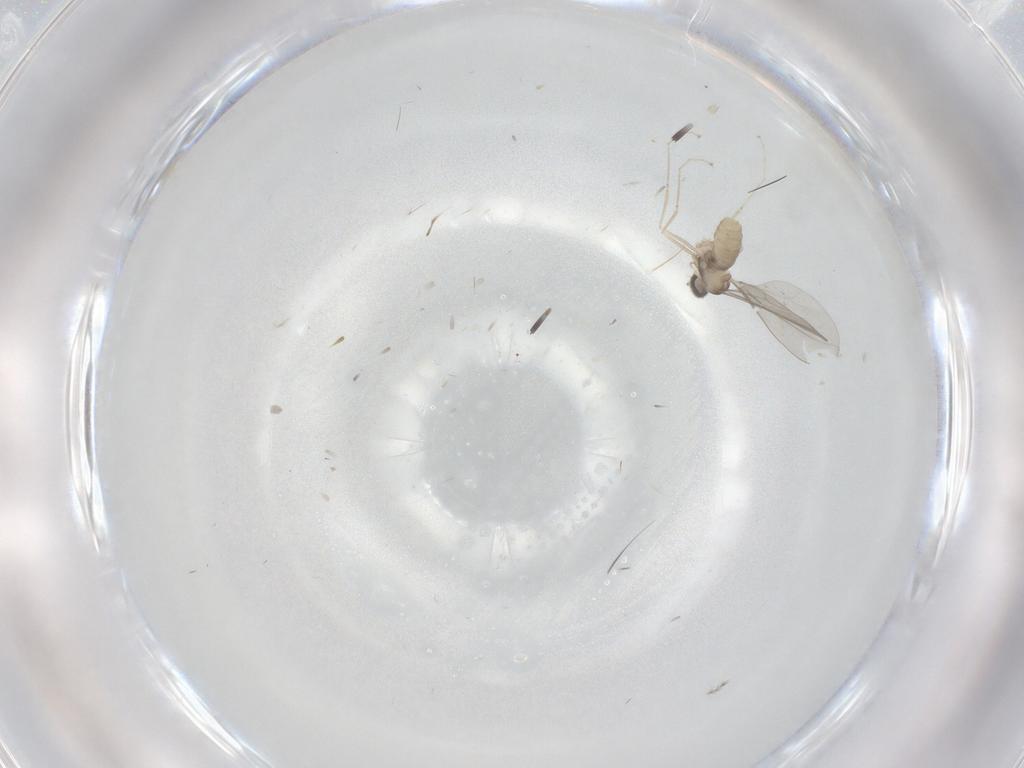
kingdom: Animalia
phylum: Arthropoda
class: Insecta
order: Diptera
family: Cecidomyiidae
